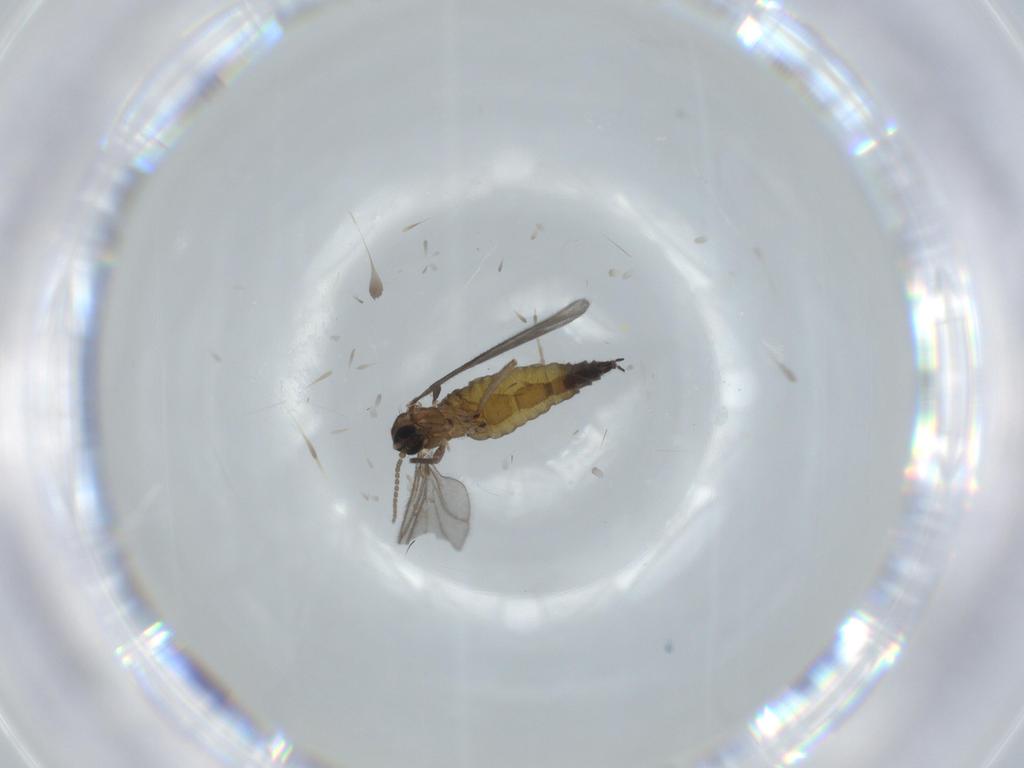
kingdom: Animalia
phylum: Arthropoda
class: Insecta
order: Diptera
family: Sciaridae
